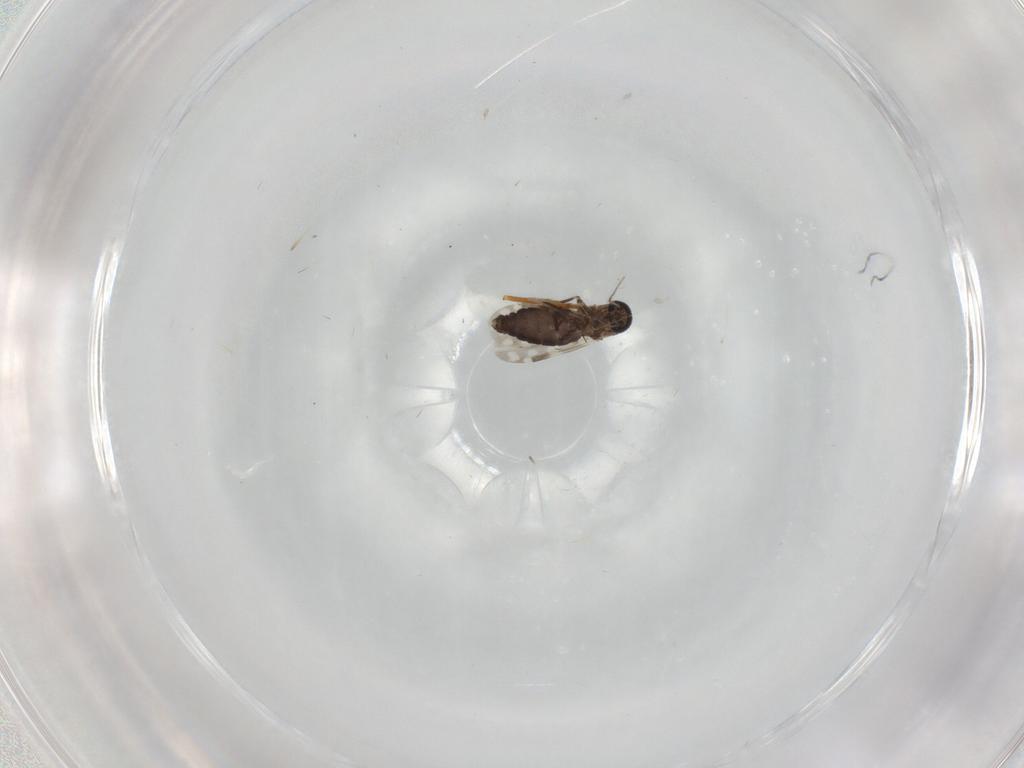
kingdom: Animalia
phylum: Arthropoda
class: Insecta
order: Diptera
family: Ceratopogonidae
